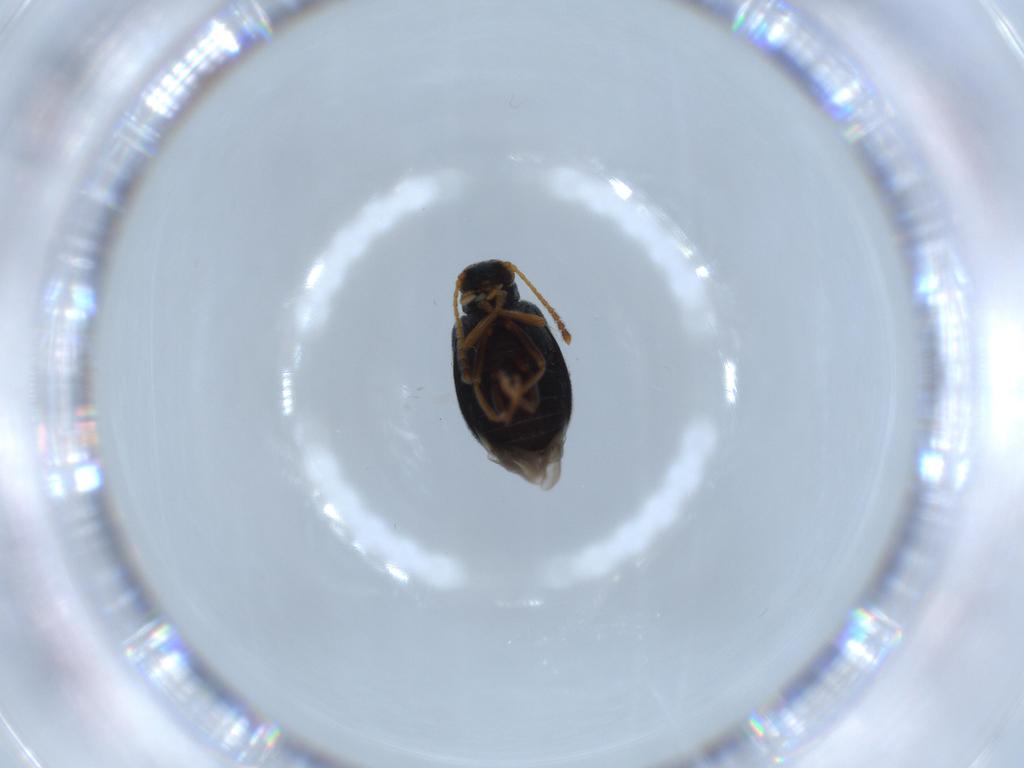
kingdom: Animalia
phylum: Arthropoda
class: Insecta
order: Coleoptera
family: Aderidae
